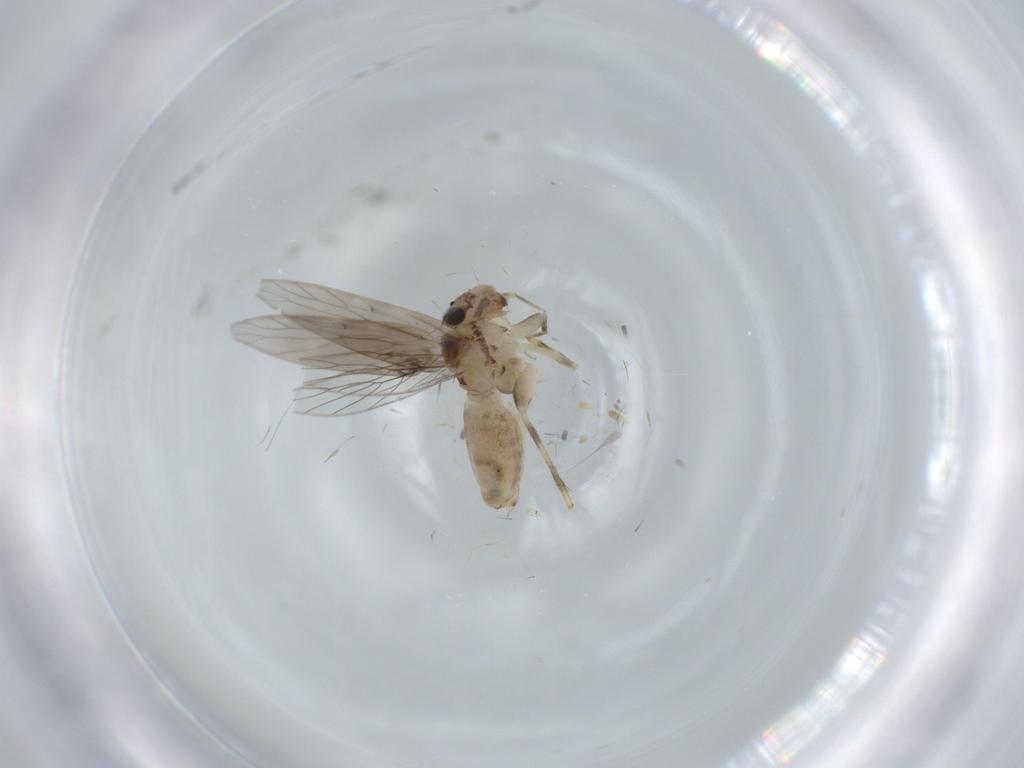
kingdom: Animalia
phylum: Arthropoda
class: Insecta
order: Psocodea
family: Lepidopsocidae
